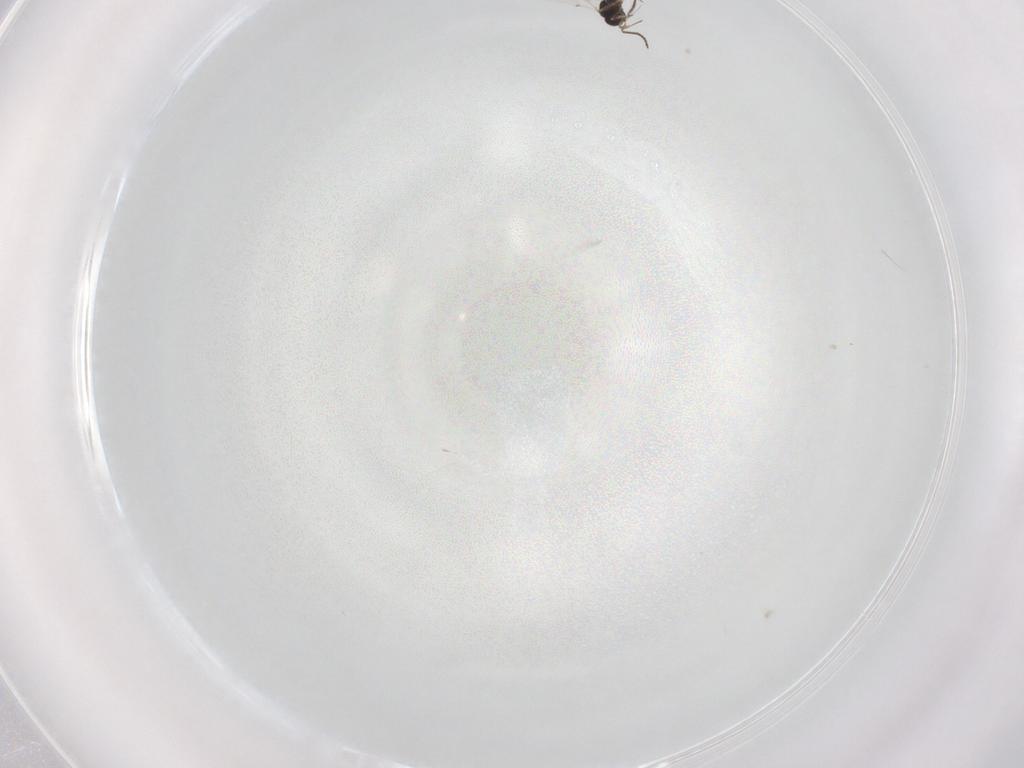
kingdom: Animalia
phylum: Arthropoda
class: Insecta
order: Hymenoptera
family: Scelionidae
